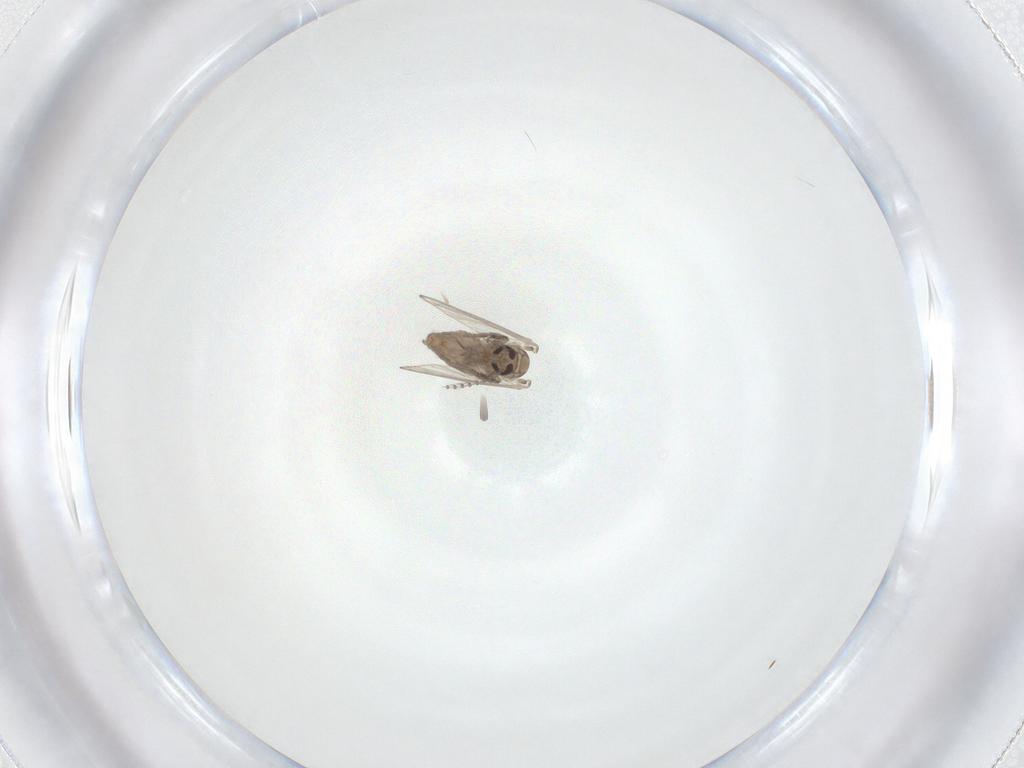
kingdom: Animalia
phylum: Arthropoda
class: Insecta
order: Diptera
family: Psychodidae
